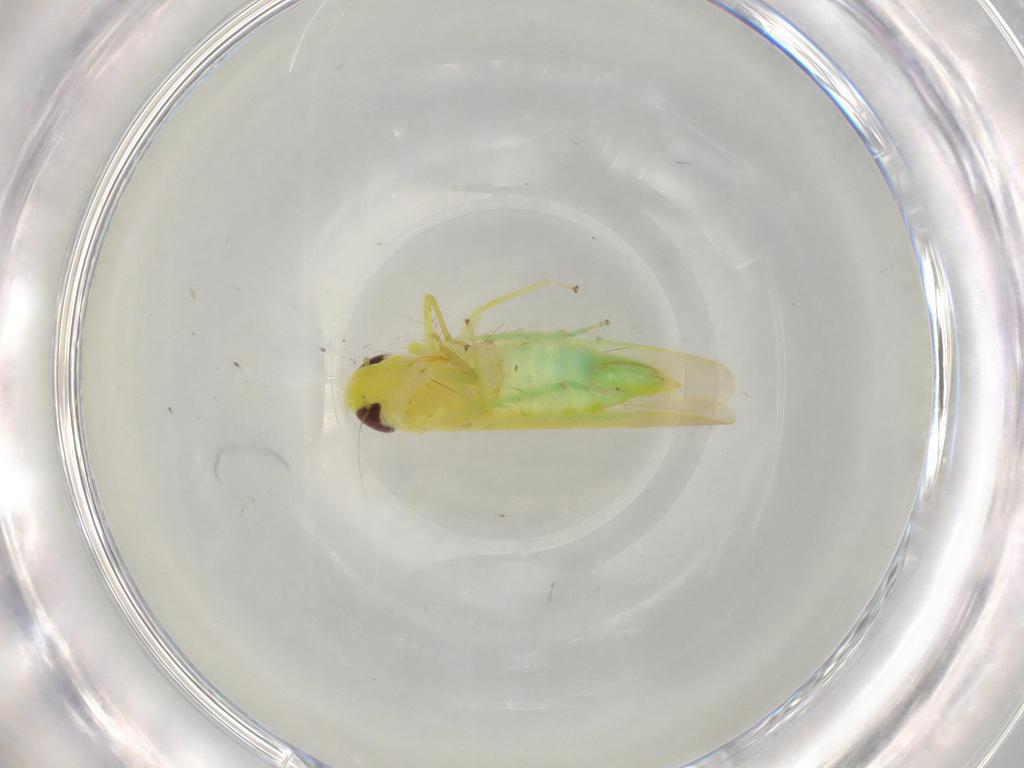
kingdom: Animalia
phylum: Arthropoda
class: Insecta
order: Hemiptera
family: Cicadellidae
